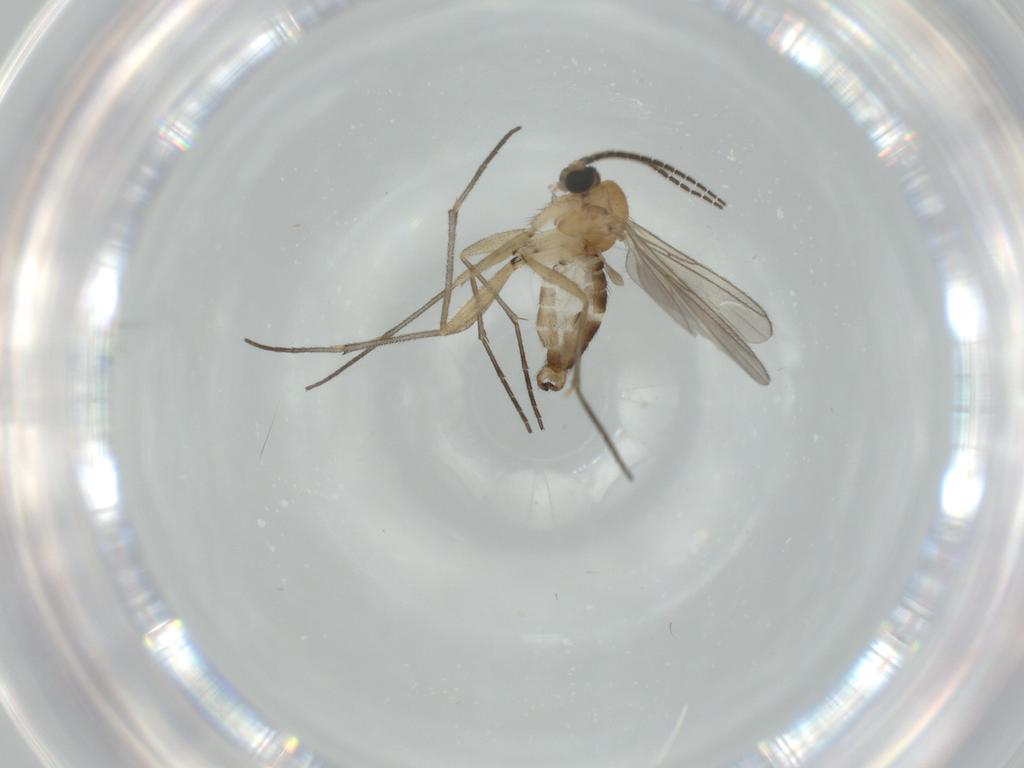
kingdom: Animalia
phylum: Arthropoda
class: Insecta
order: Diptera
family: Sciaridae
